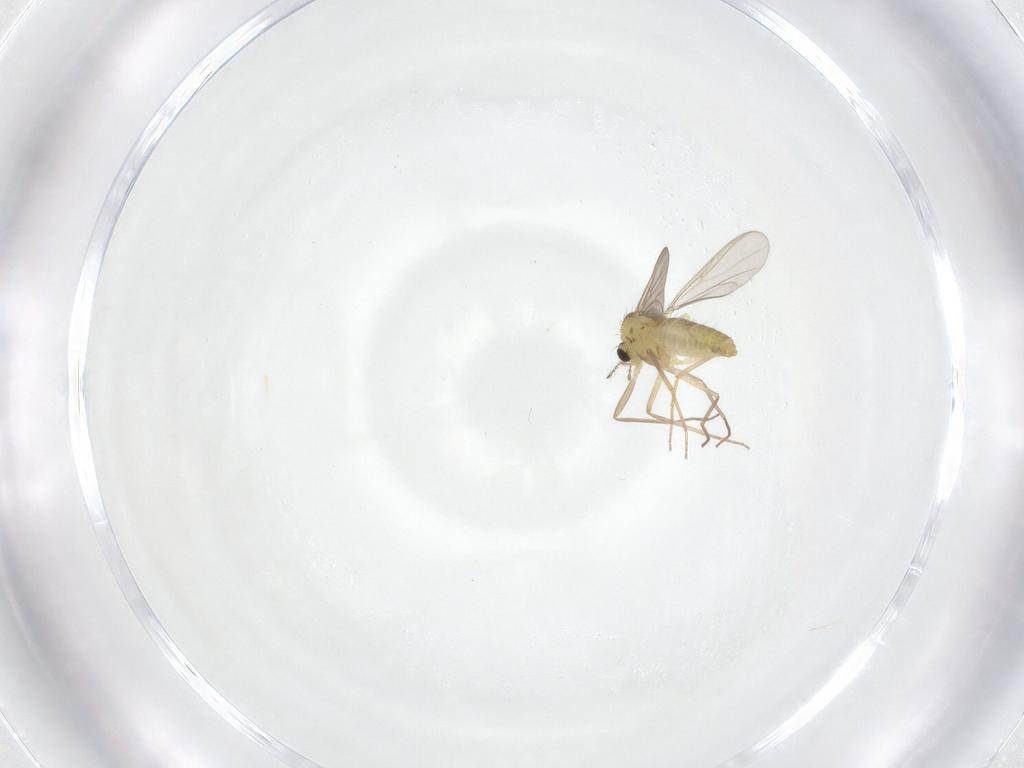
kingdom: Animalia
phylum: Arthropoda
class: Insecta
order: Diptera
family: Chironomidae
